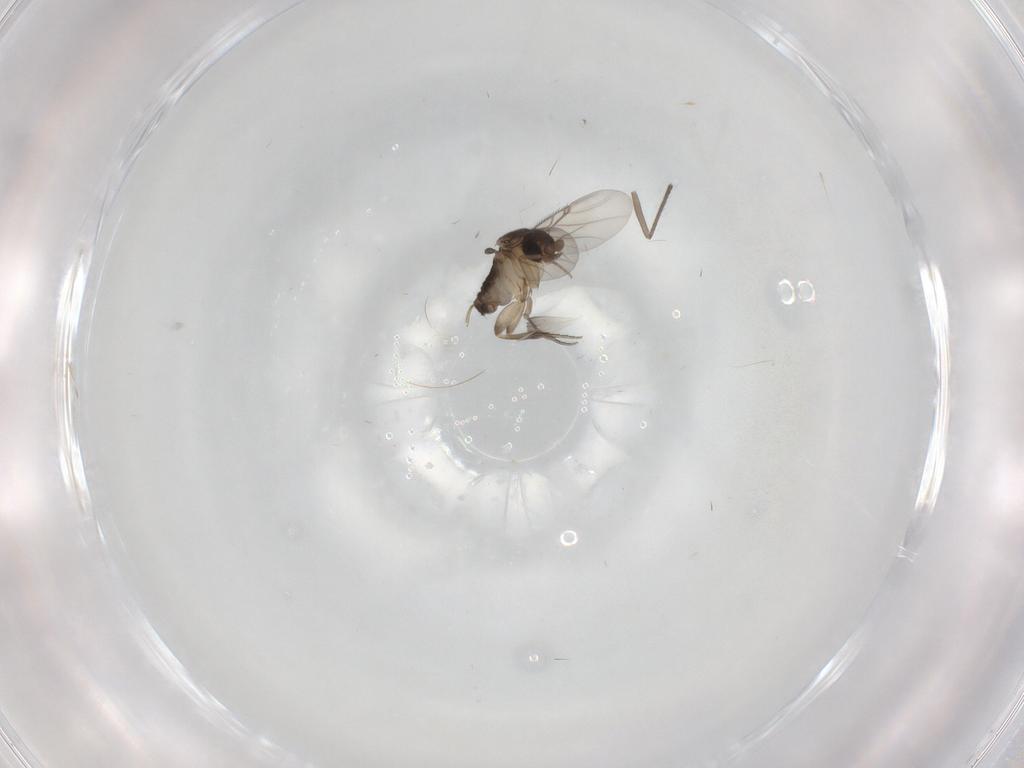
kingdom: Animalia
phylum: Arthropoda
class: Insecta
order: Diptera
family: Phoridae
